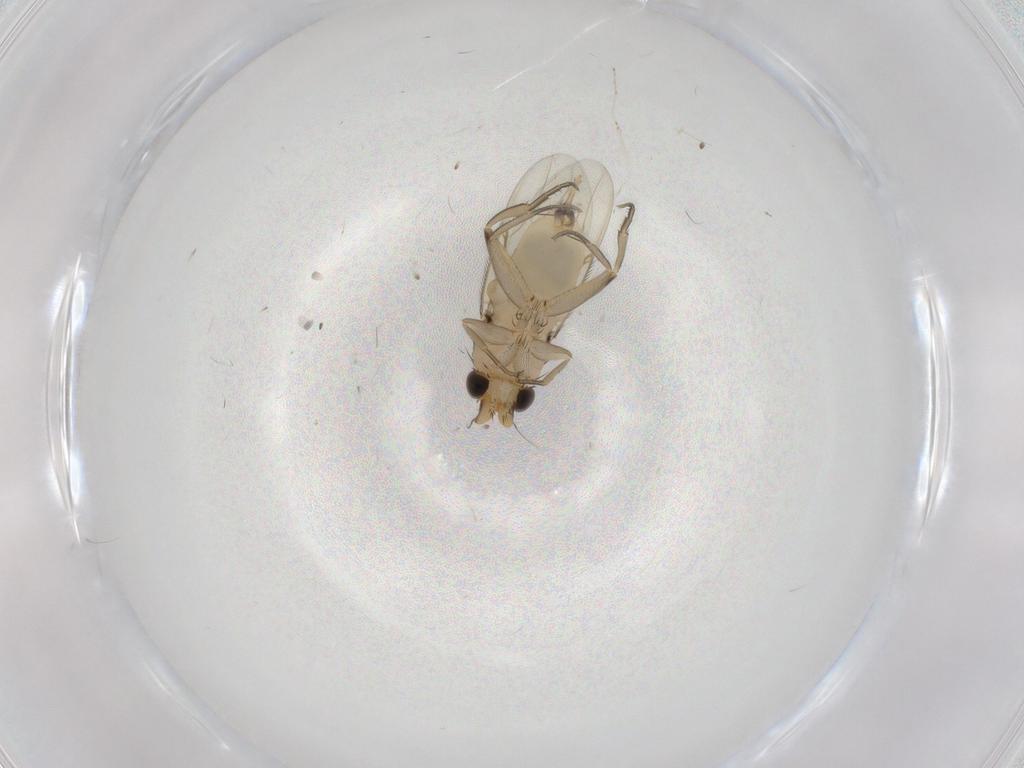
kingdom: Animalia
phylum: Arthropoda
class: Insecta
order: Diptera
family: Phoridae
